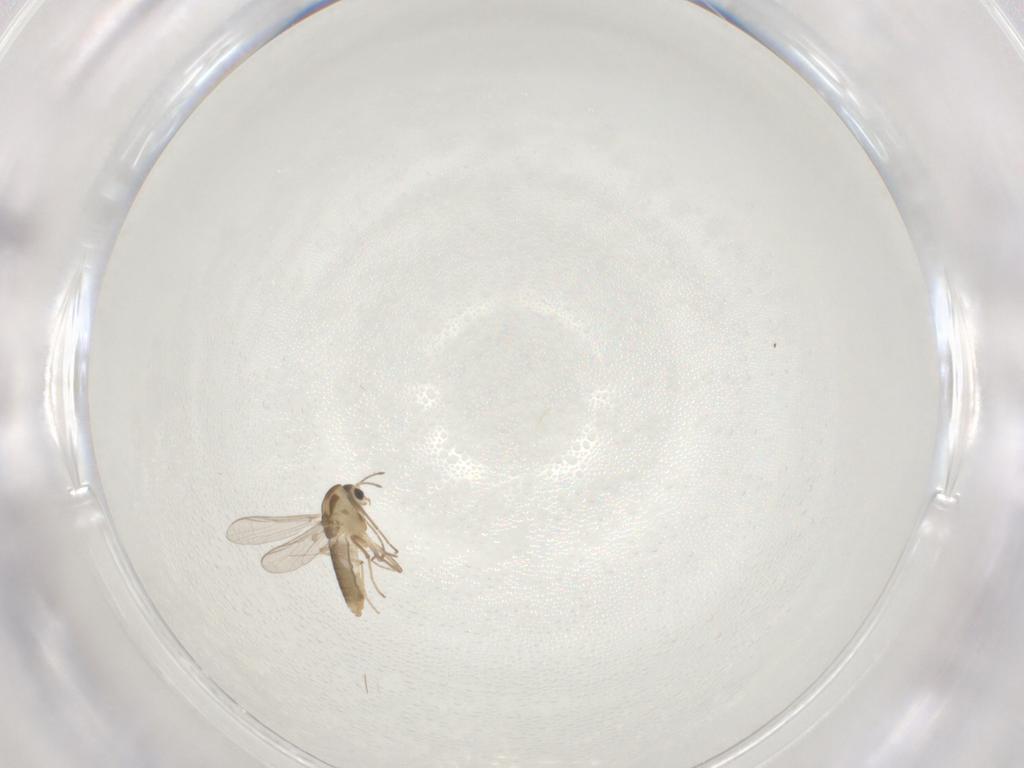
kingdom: Animalia
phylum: Arthropoda
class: Insecta
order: Diptera
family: Chironomidae
